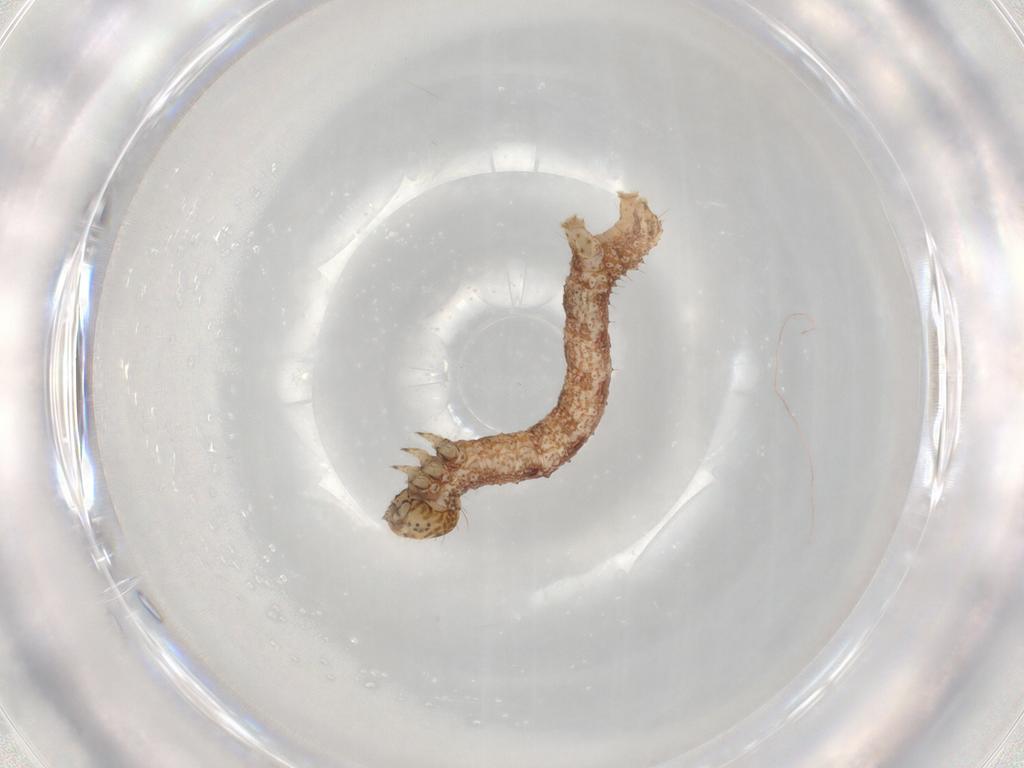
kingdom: Animalia
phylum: Arthropoda
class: Insecta
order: Lepidoptera
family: Geometridae
